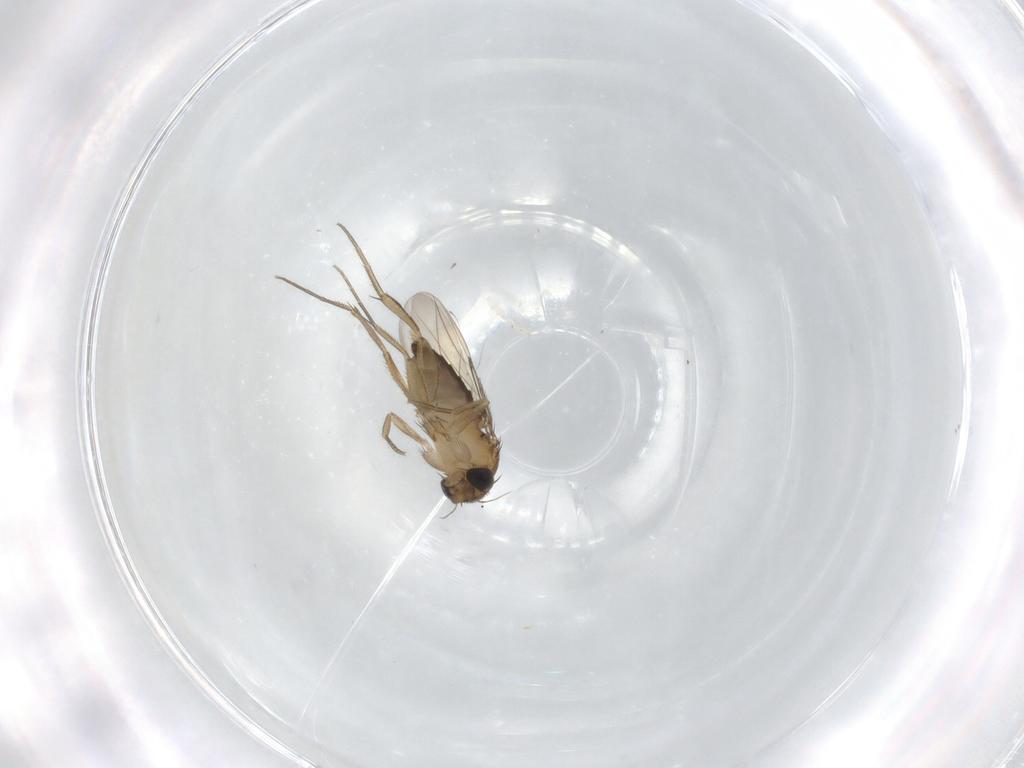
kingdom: Animalia
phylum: Arthropoda
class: Insecta
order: Diptera
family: Phoridae
